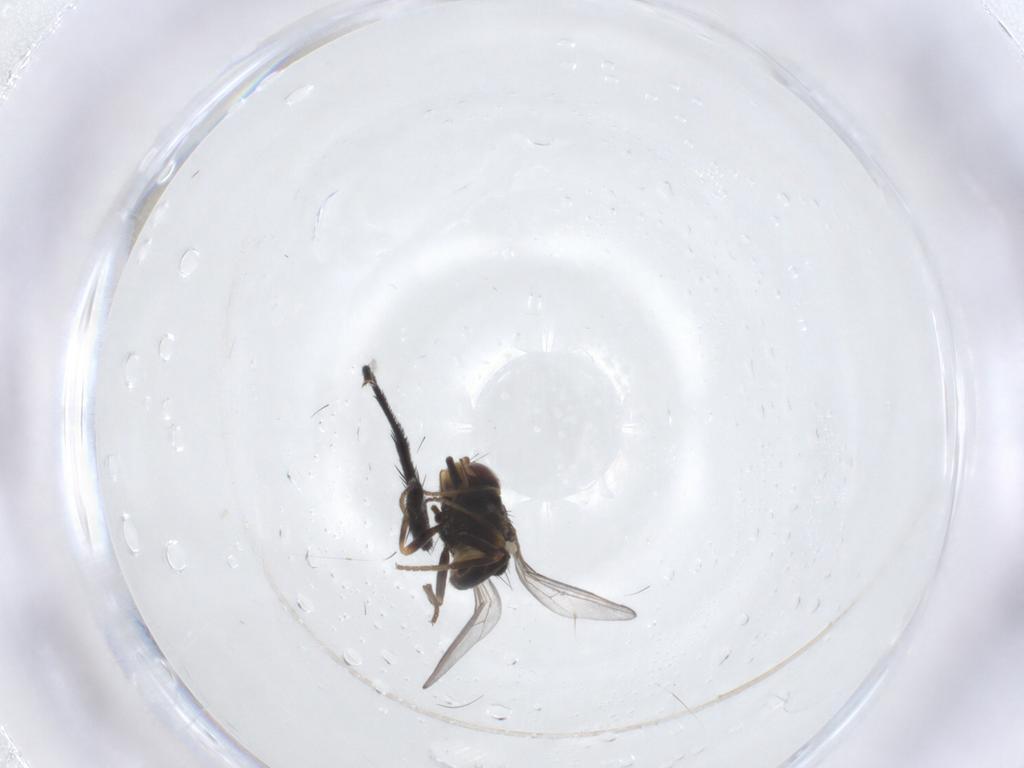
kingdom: Animalia
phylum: Arthropoda
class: Insecta
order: Diptera
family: Chloropidae
